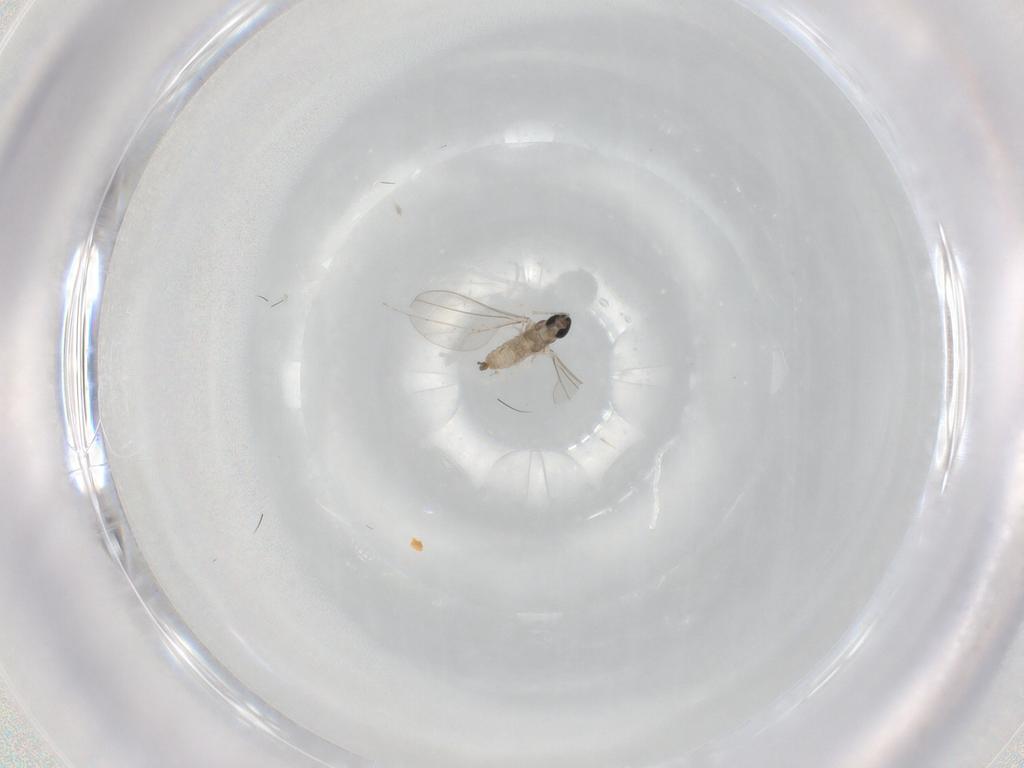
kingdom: Animalia
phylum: Arthropoda
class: Insecta
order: Diptera
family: Cecidomyiidae
